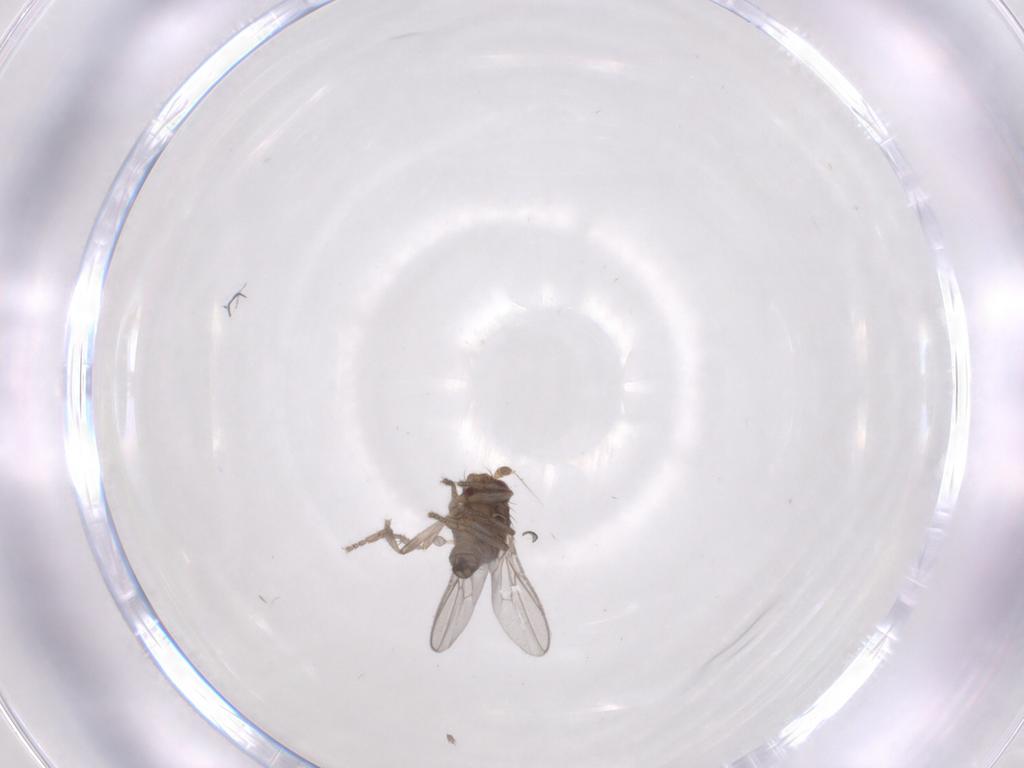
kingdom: Animalia
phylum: Arthropoda
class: Insecta
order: Diptera
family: Sphaeroceridae
